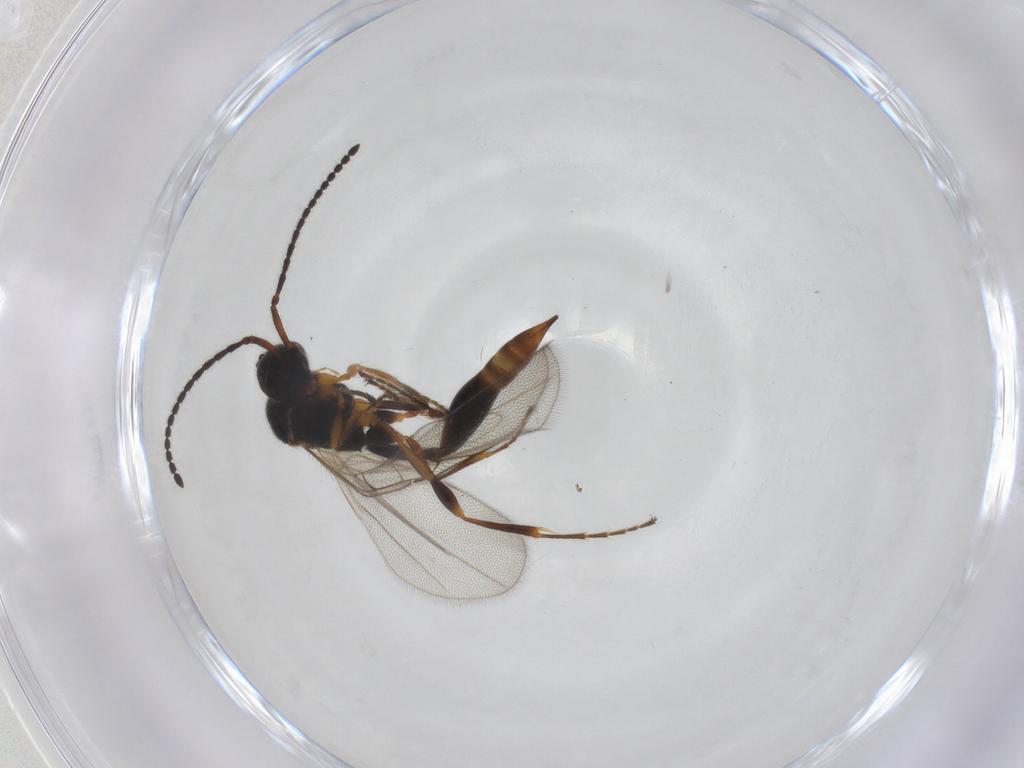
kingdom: Animalia
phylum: Arthropoda
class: Insecta
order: Hymenoptera
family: Diapriidae
